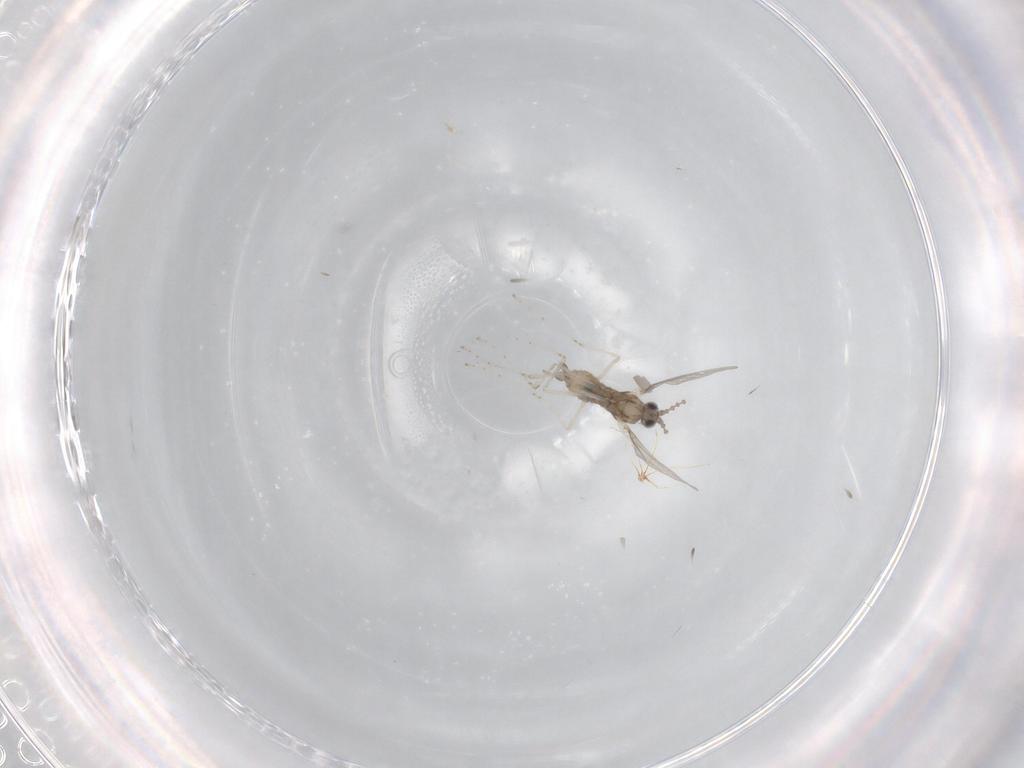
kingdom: Animalia
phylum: Arthropoda
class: Insecta
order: Diptera
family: Cecidomyiidae
